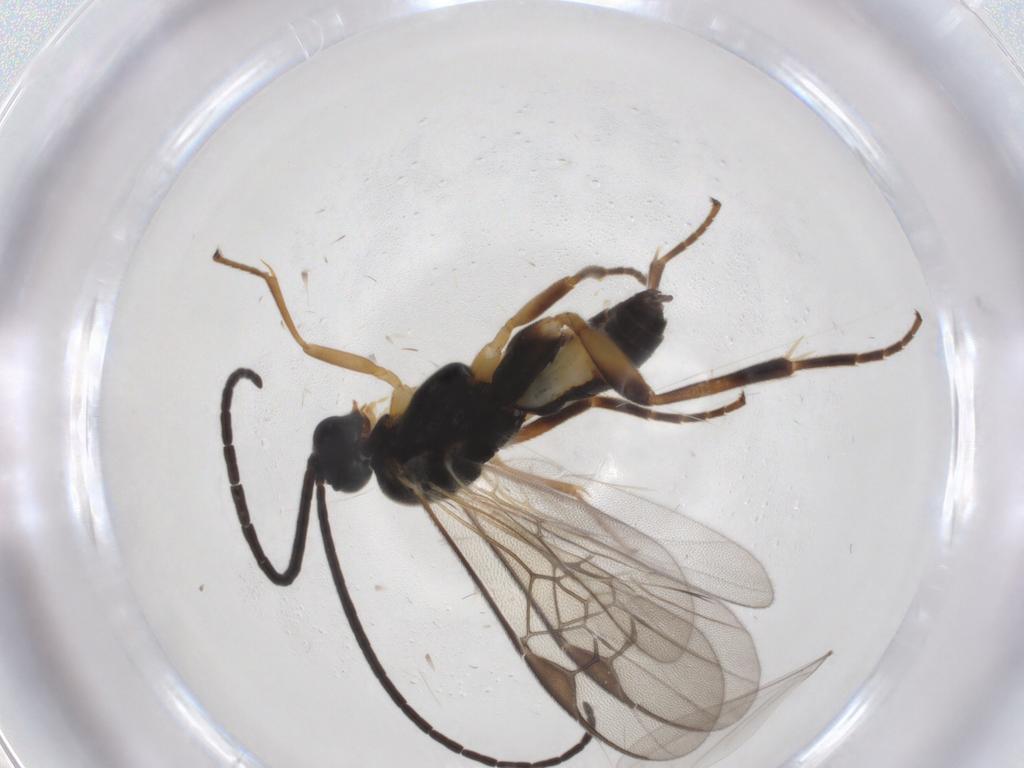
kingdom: Animalia
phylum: Arthropoda
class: Insecta
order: Hymenoptera
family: Braconidae
